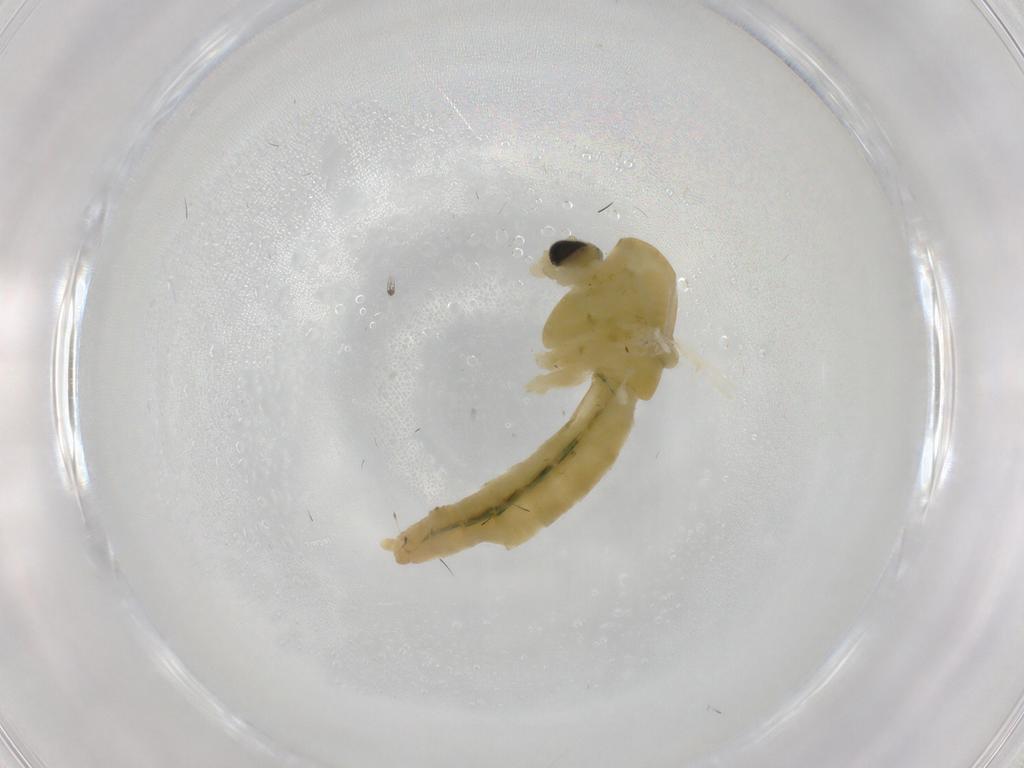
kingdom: Animalia
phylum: Arthropoda
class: Insecta
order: Diptera
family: Chironomidae
